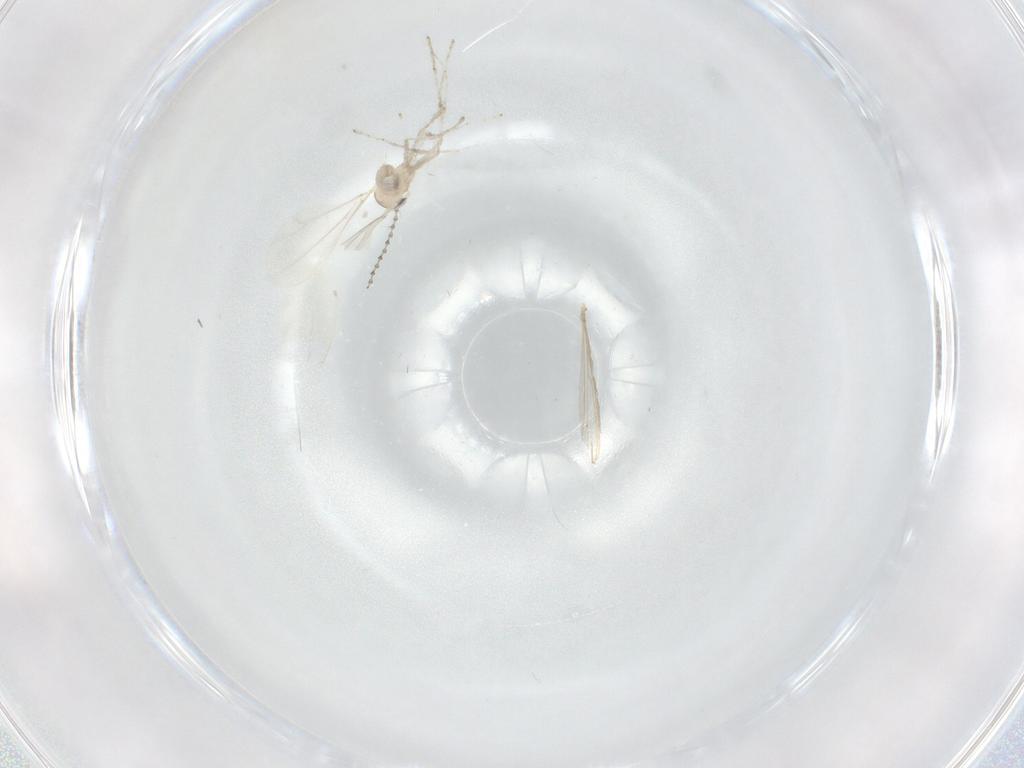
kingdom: Animalia
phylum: Arthropoda
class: Insecta
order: Diptera
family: Cecidomyiidae
